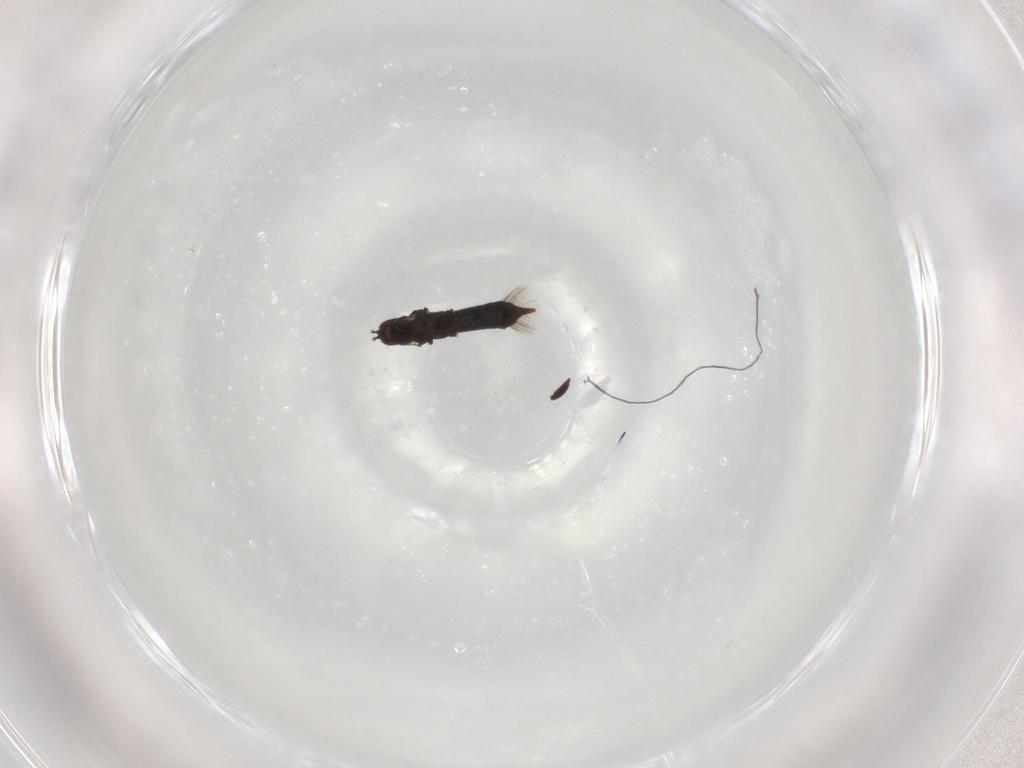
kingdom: Animalia
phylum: Arthropoda
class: Insecta
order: Thysanoptera
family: Phlaeothripidae
